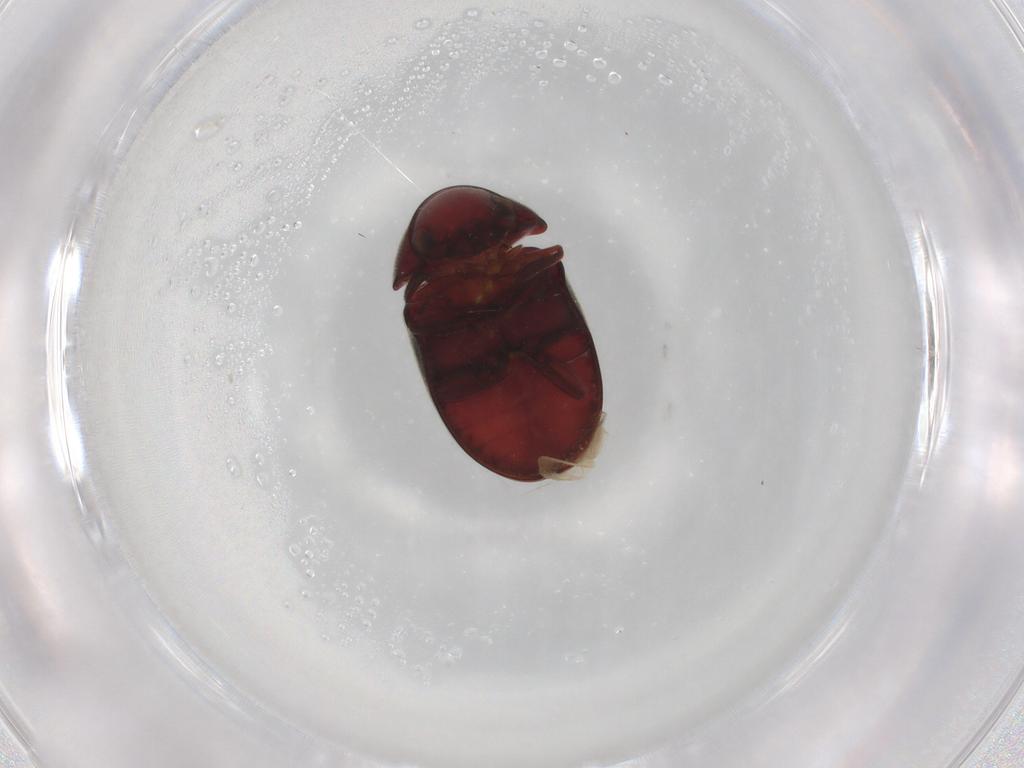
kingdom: Animalia
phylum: Arthropoda
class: Insecta
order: Coleoptera
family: Ptinidae
